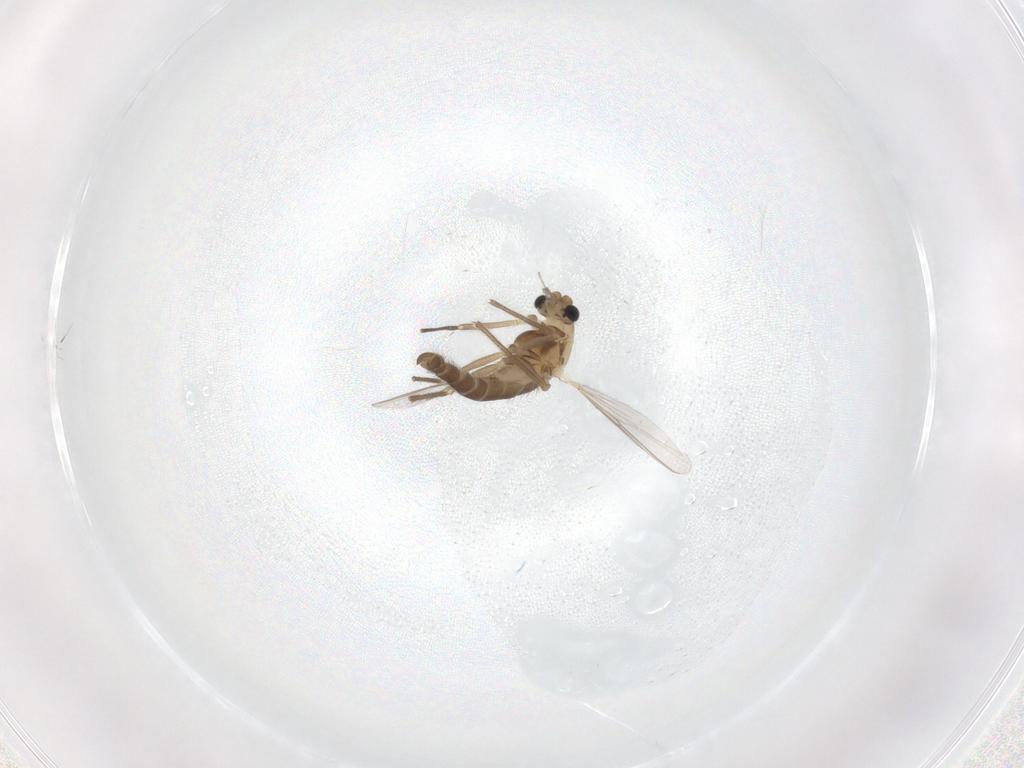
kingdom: Animalia
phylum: Arthropoda
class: Insecta
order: Diptera
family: Chironomidae
